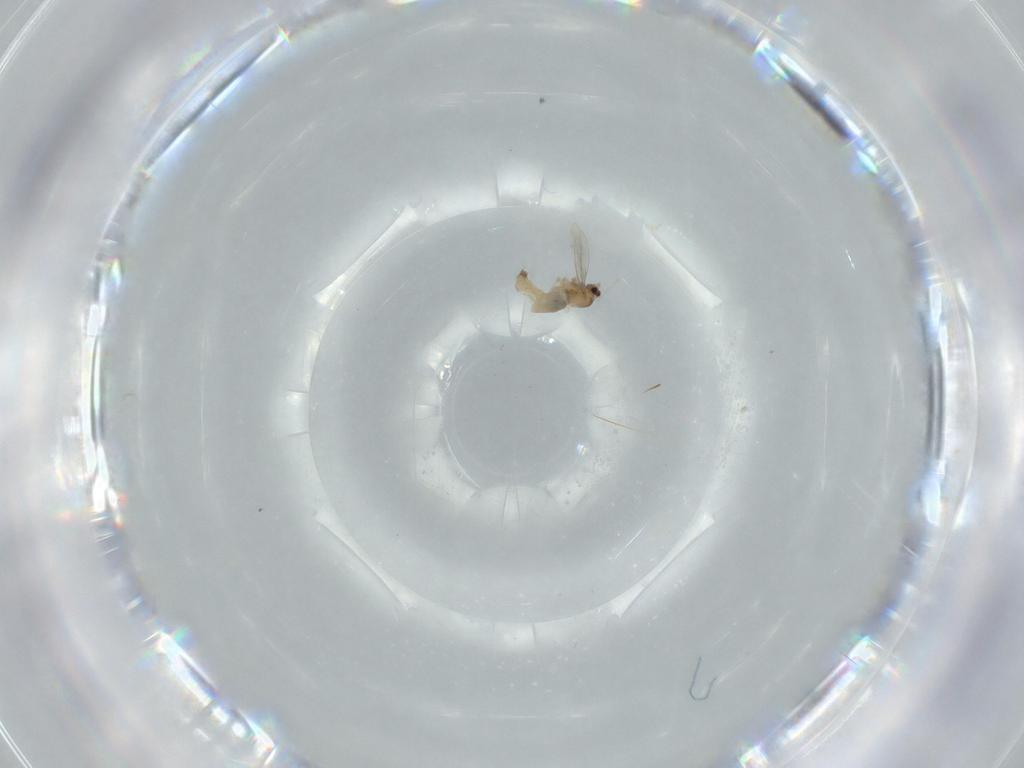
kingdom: Animalia
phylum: Arthropoda
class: Insecta
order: Diptera
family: Cecidomyiidae
